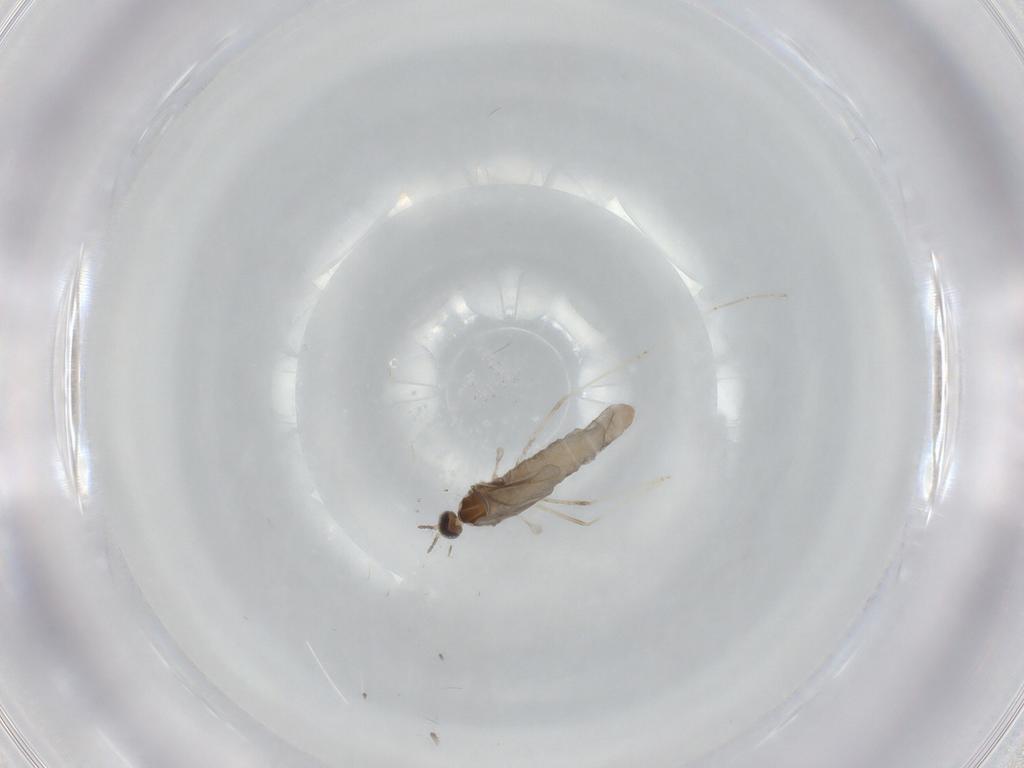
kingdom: Animalia
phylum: Arthropoda
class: Insecta
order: Diptera
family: Cecidomyiidae
